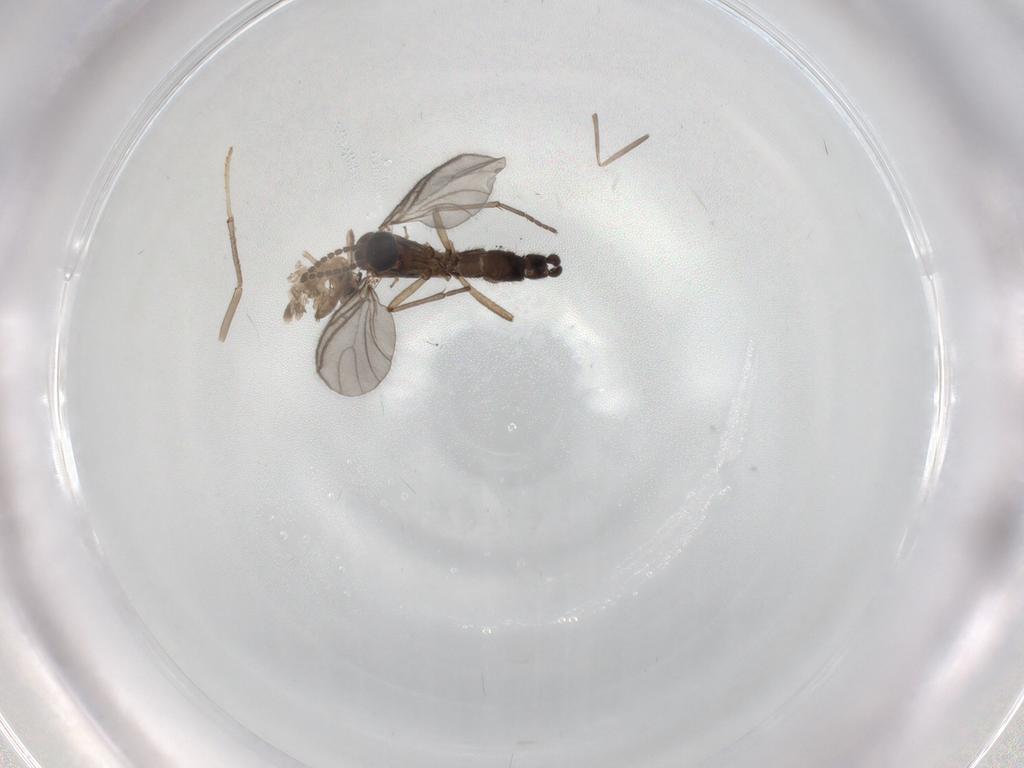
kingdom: Animalia
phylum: Arthropoda
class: Insecta
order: Diptera
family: Sciaridae
